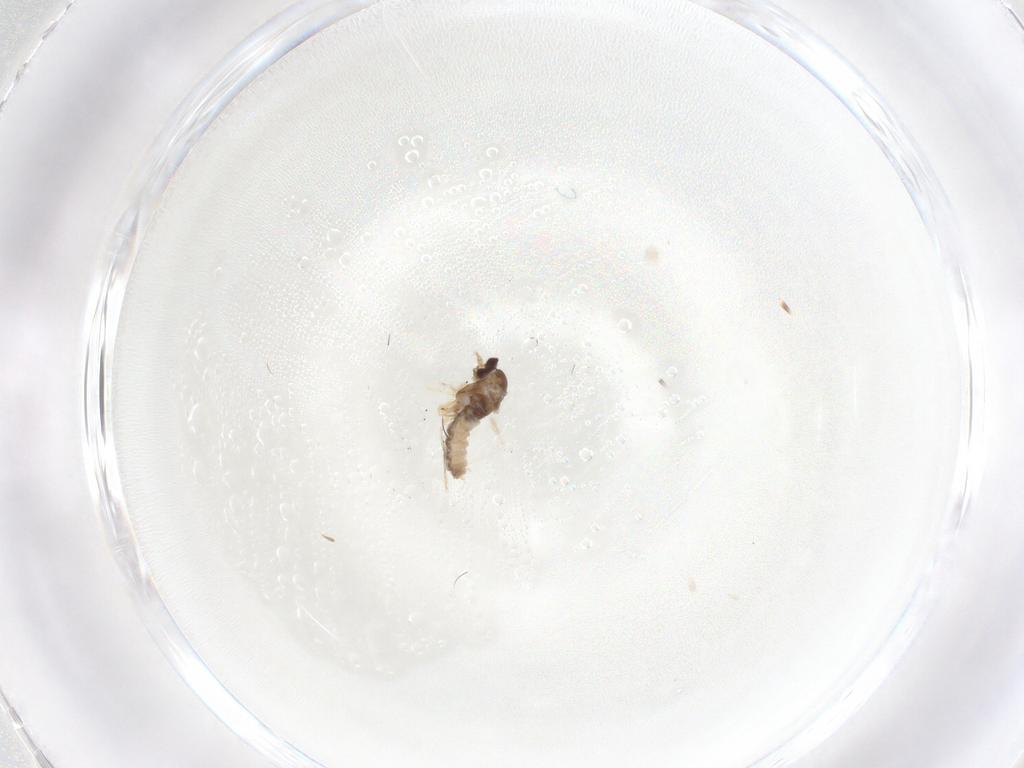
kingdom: Animalia
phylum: Arthropoda
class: Insecta
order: Diptera
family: Cecidomyiidae
